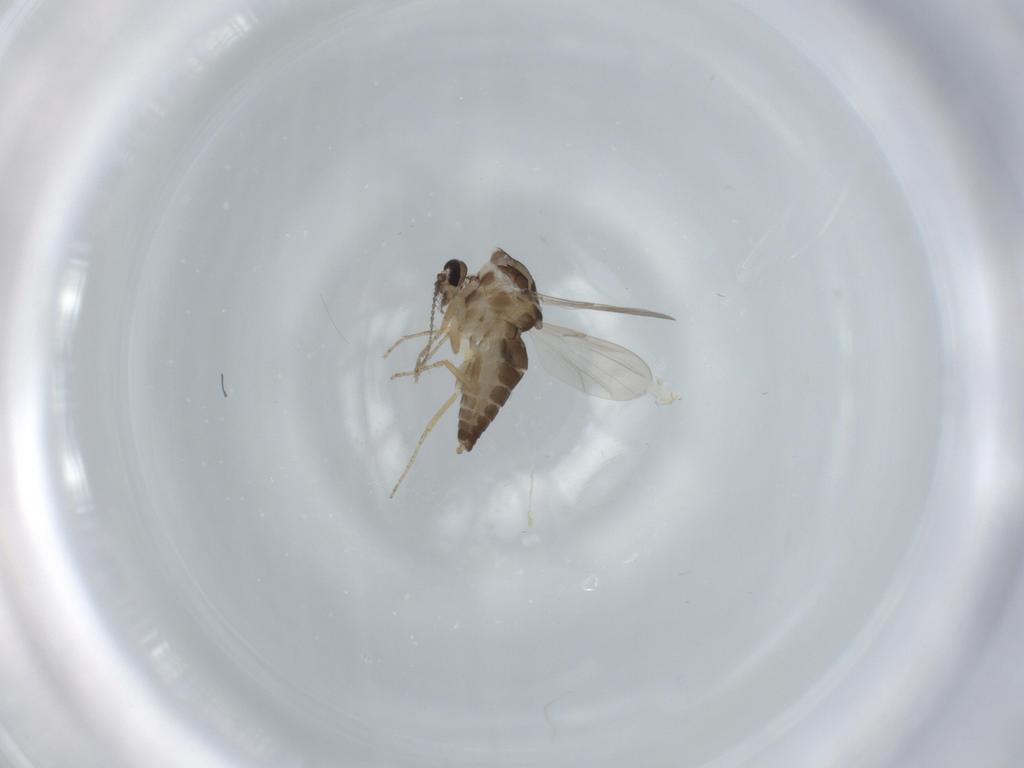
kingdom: Animalia
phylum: Arthropoda
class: Insecta
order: Diptera
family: Ceratopogonidae
